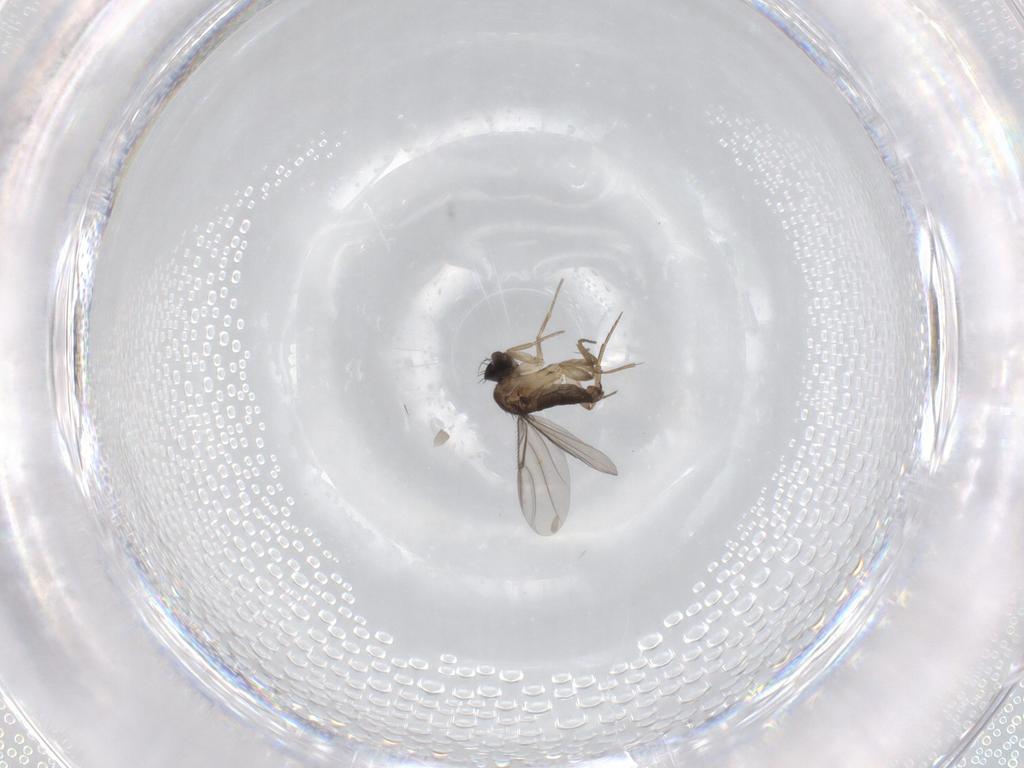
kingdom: Animalia
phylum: Arthropoda
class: Insecta
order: Diptera
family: Phoridae
